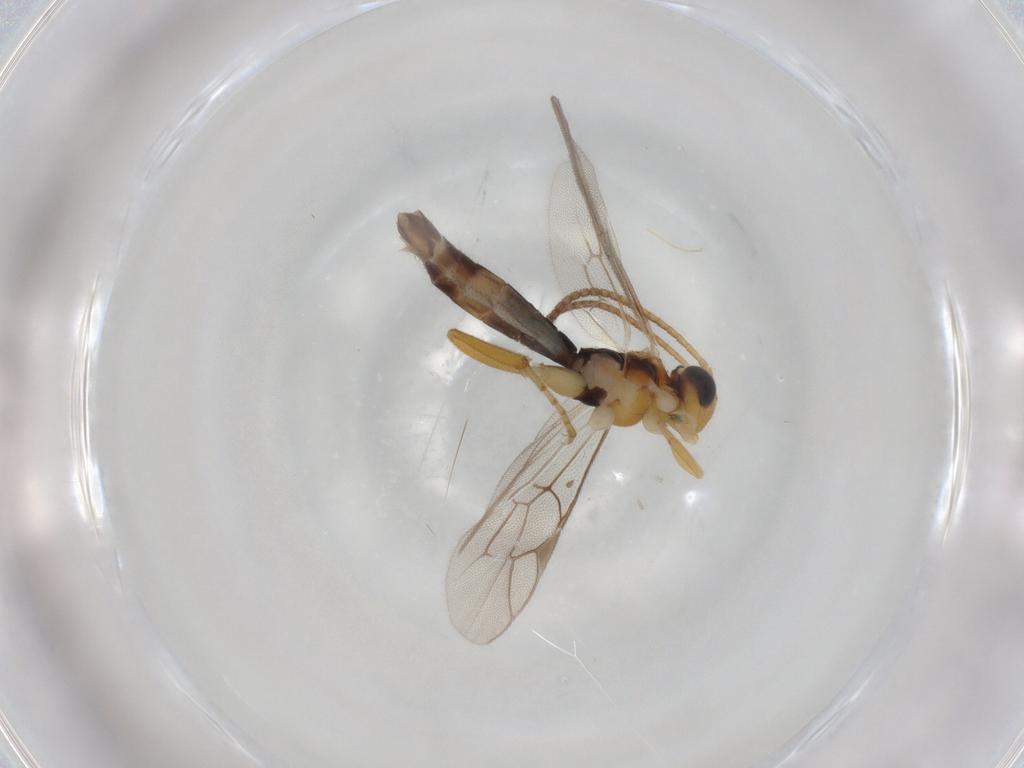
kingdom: Animalia
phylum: Arthropoda
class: Insecta
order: Hymenoptera
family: Ichneumonidae
